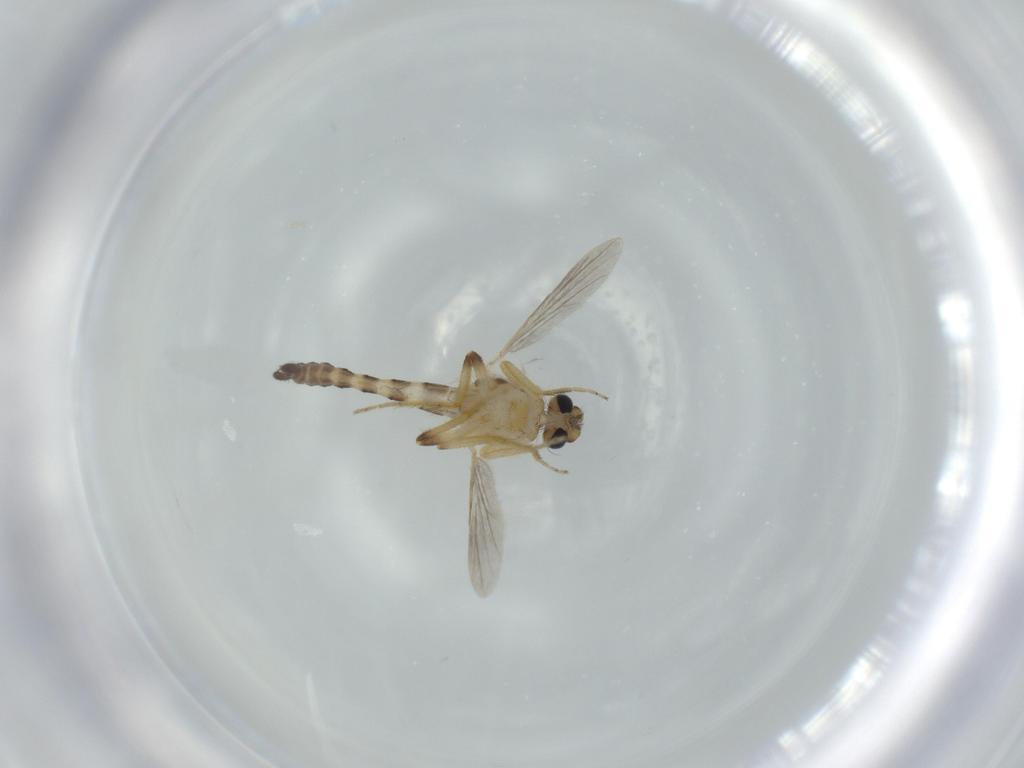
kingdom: Animalia
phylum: Arthropoda
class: Insecta
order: Diptera
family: Ceratopogonidae
